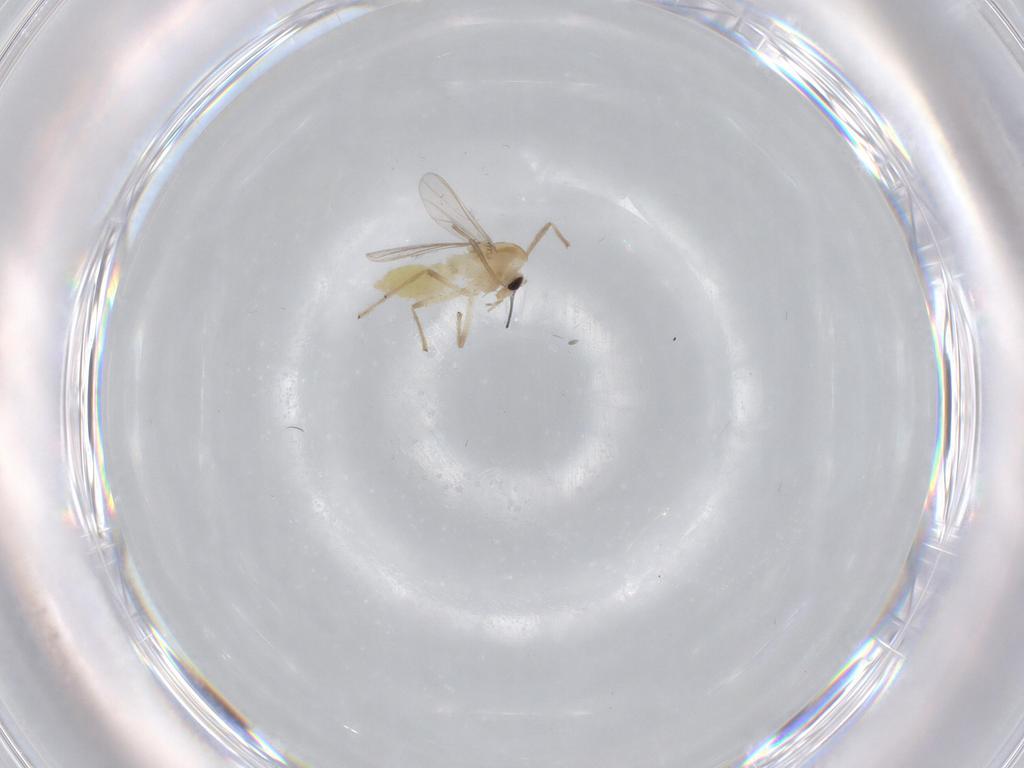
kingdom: Animalia
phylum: Arthropoda
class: Insecta
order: Diptera
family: Chironomidae
